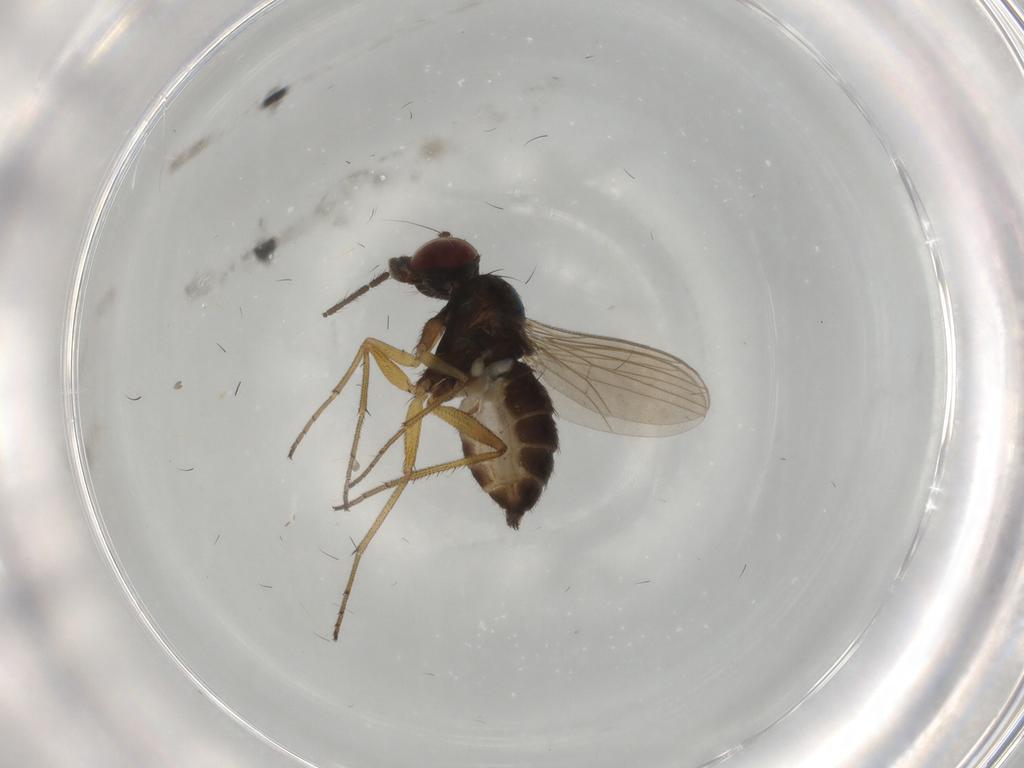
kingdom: Animalia
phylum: Arthropoda
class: Insecta
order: Diptera
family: Dolichopodidae
